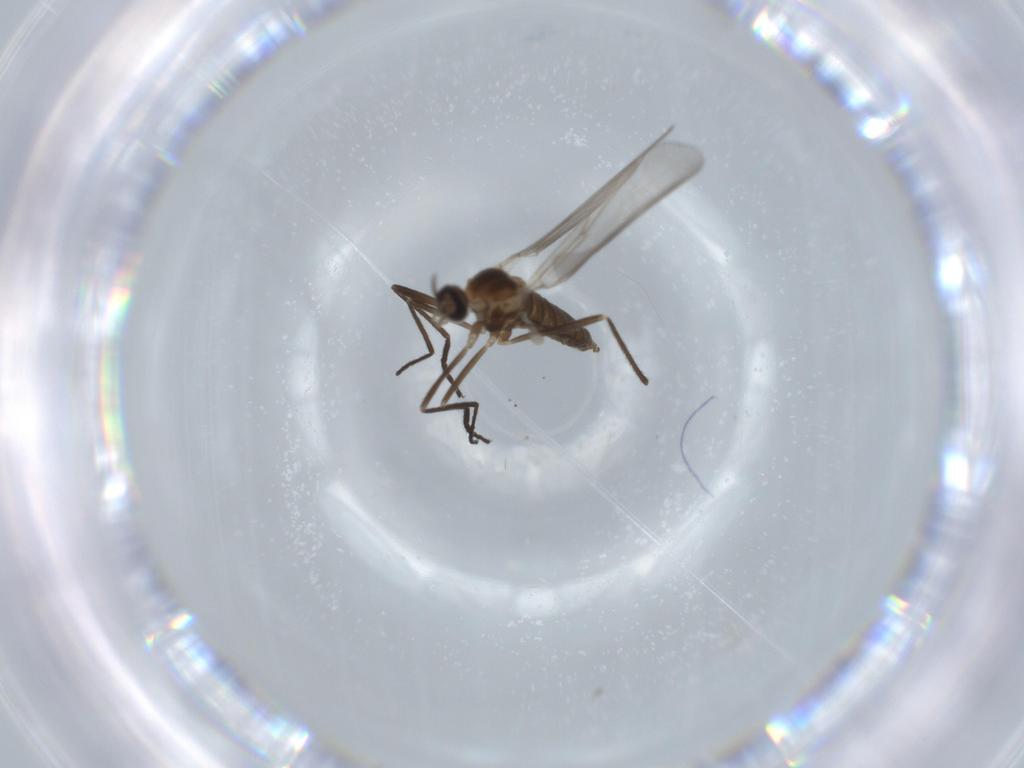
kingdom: Animalia
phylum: Arthropoda
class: Insecta
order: Diptera
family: Cecidomyiidae
